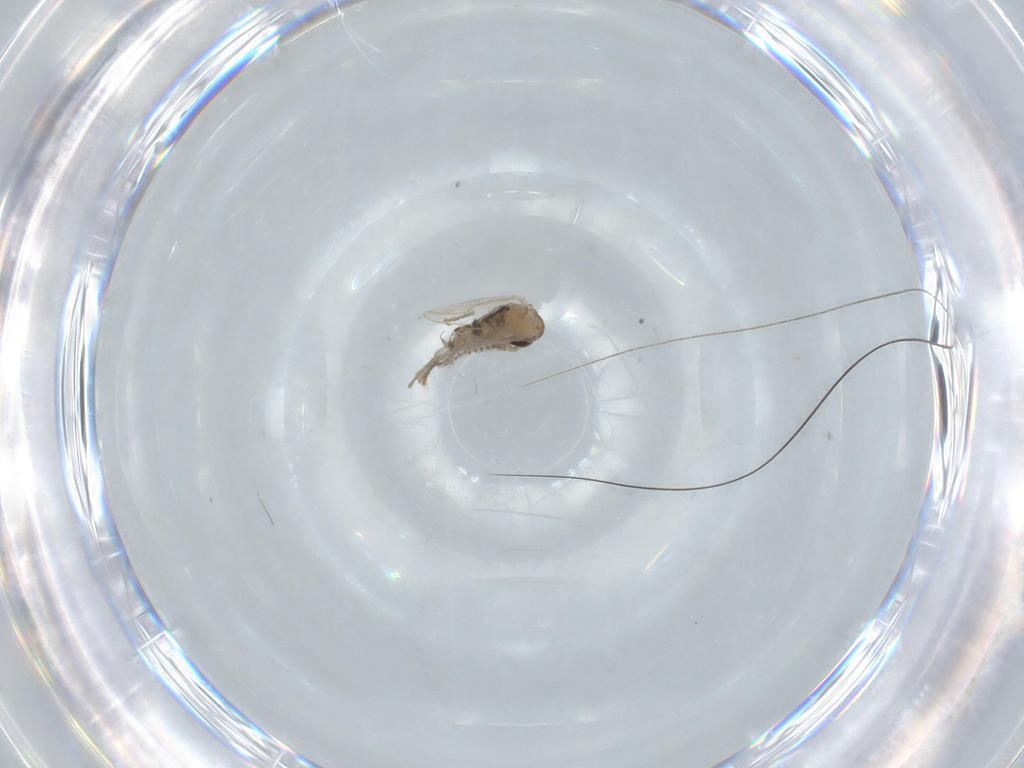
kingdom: Animalia
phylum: Arthropoda
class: Insecta
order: Diptera
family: Psychodidae
